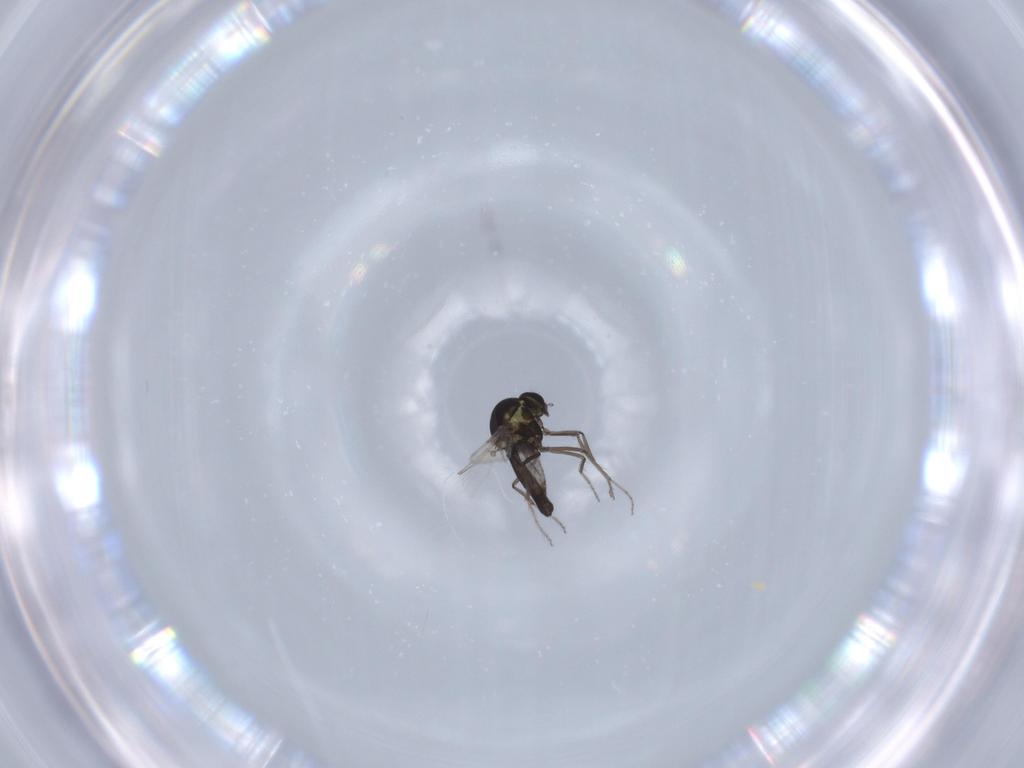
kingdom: Animalia
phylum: Arthropoda
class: Insecta
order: Diptera
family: Ceratopogonidae
